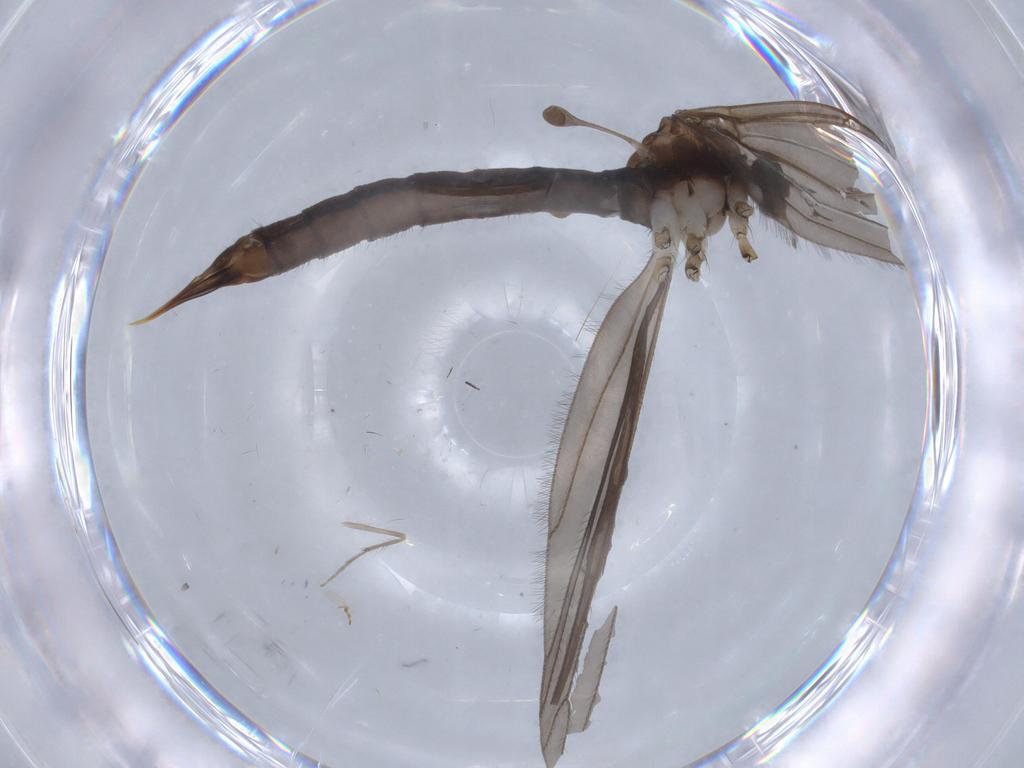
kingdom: Animalia
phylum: Arthropoda
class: Insecta
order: Diptera
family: Limoniidae
